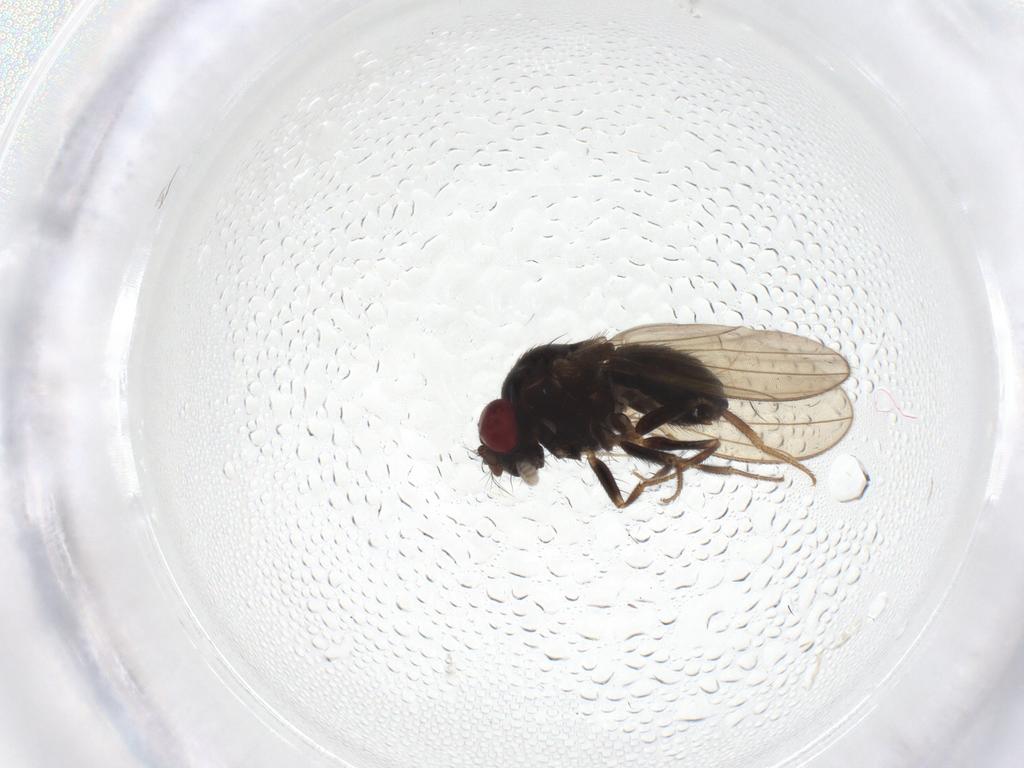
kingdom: Animalia
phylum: Arthropoda
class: Insecta
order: Diptera
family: Drosophilidae
